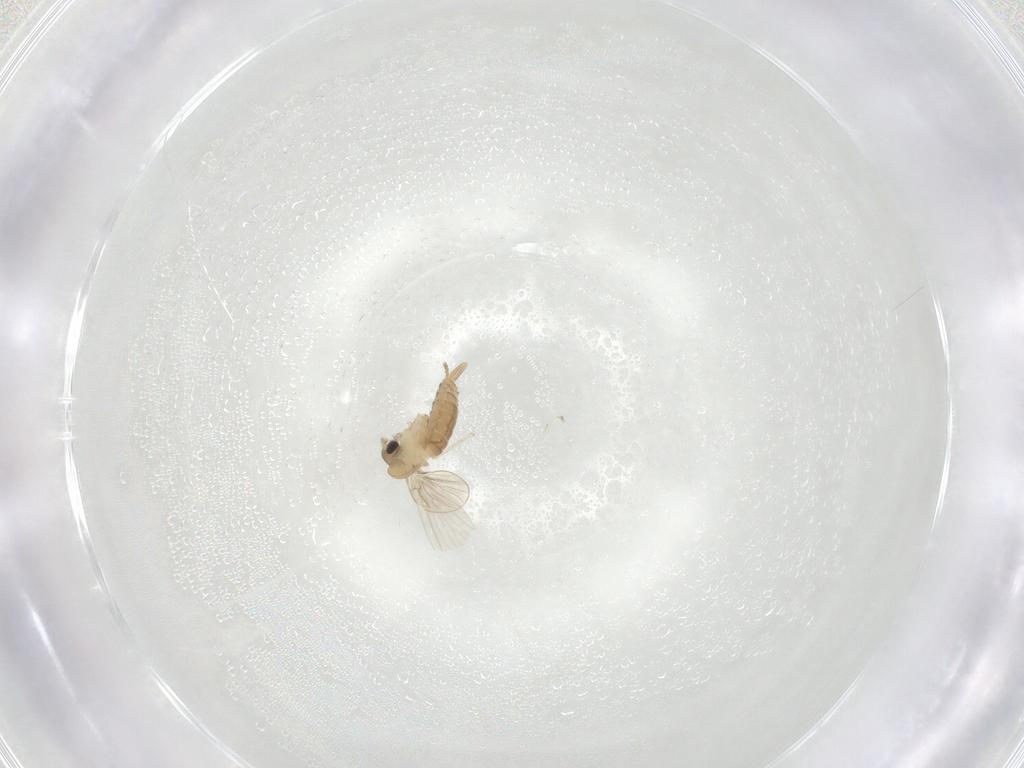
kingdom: Animalia
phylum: Arthropoda
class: Insecta
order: Diptera
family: Psychodidae
